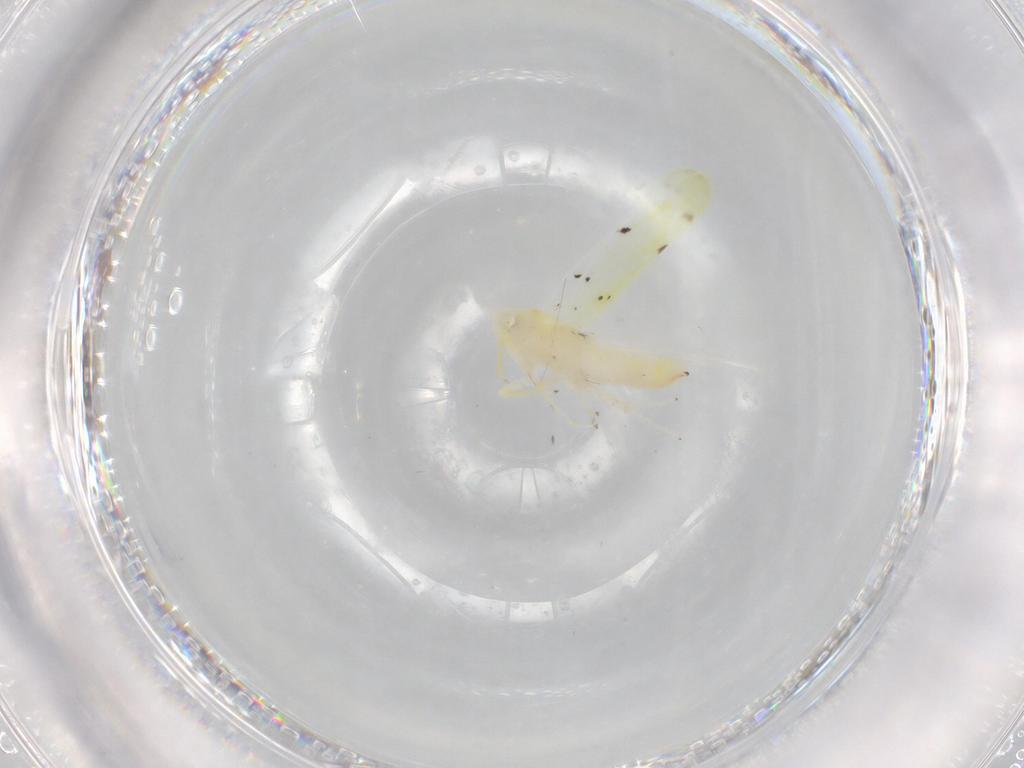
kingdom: Animalia
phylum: Arthropoda
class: Insecta
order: Hemiptera
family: Cicadellidae
